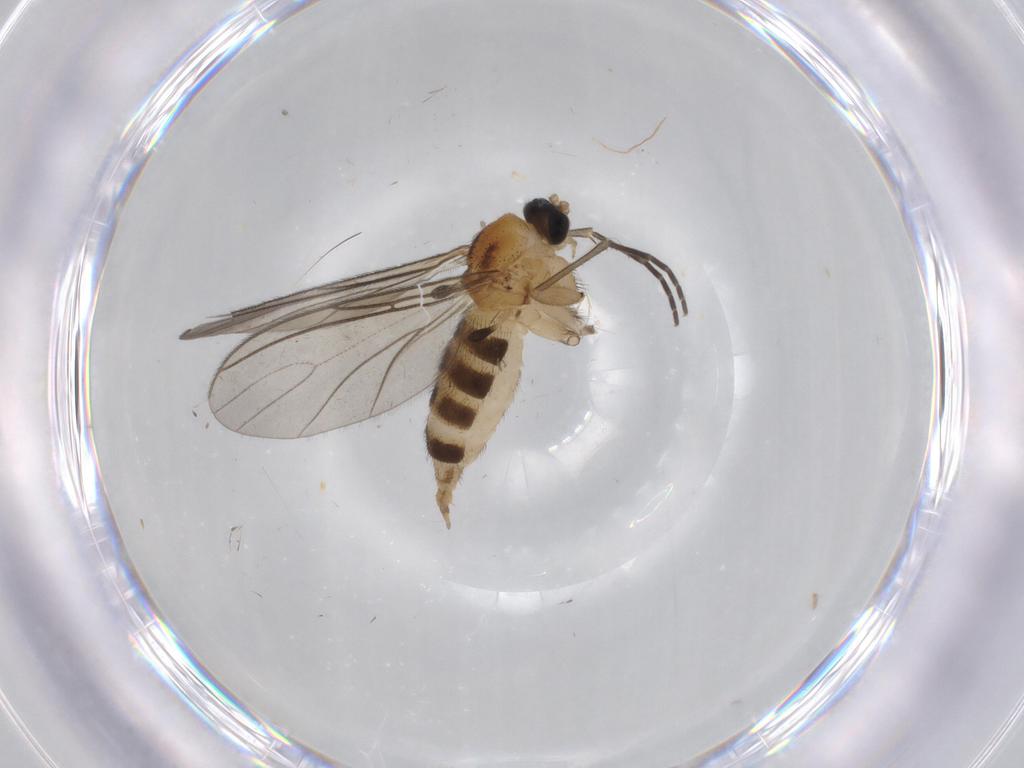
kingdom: Animalia
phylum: Arthropoda
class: Insecta
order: Diptera
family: Sciaridae
